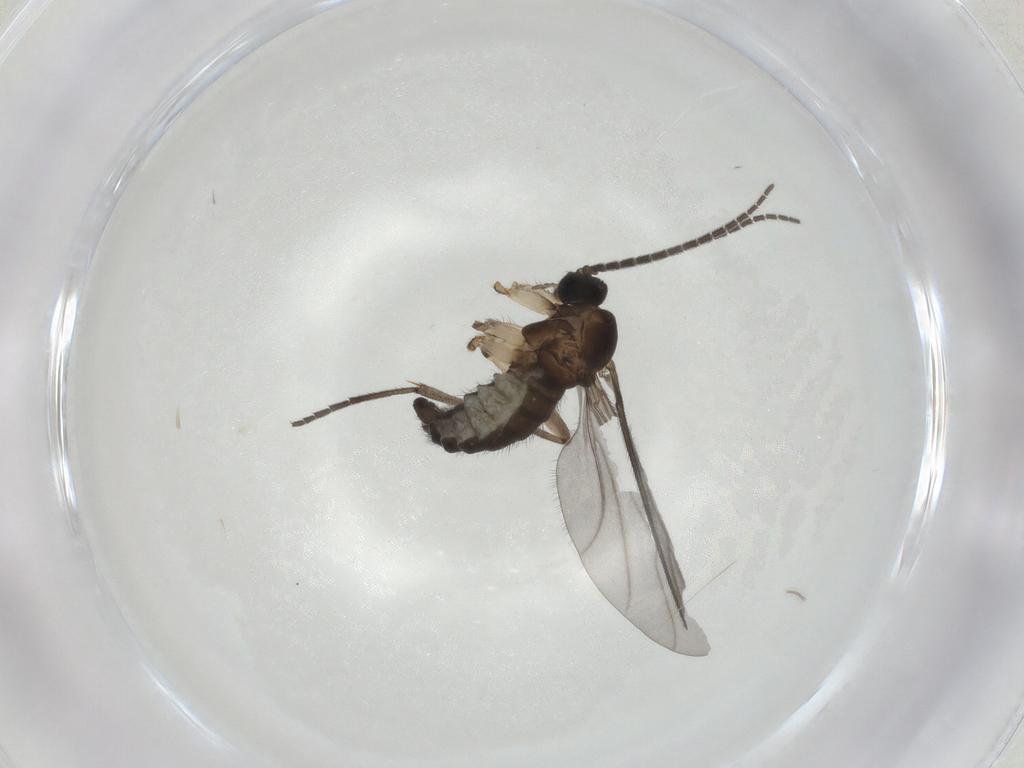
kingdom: Animalia
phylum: Arthropoda
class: Insecta
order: Diptera
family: Sciaridae
